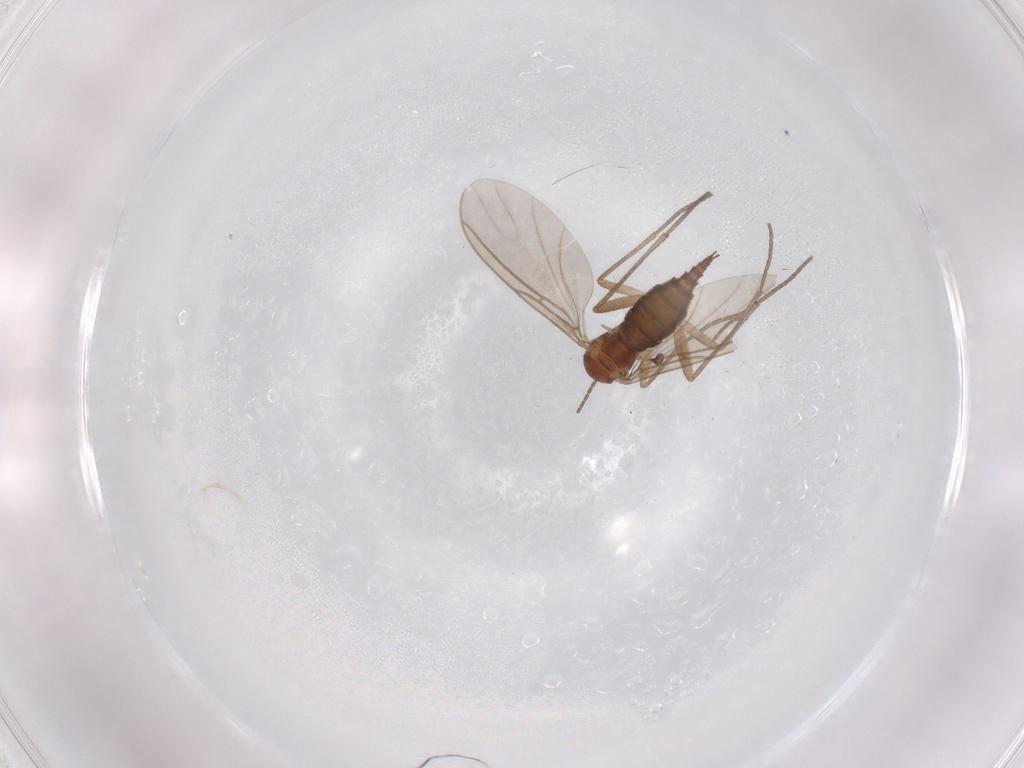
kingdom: Animalia
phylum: Arthropoda
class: Insecta
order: Diptera
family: Sciaridae
